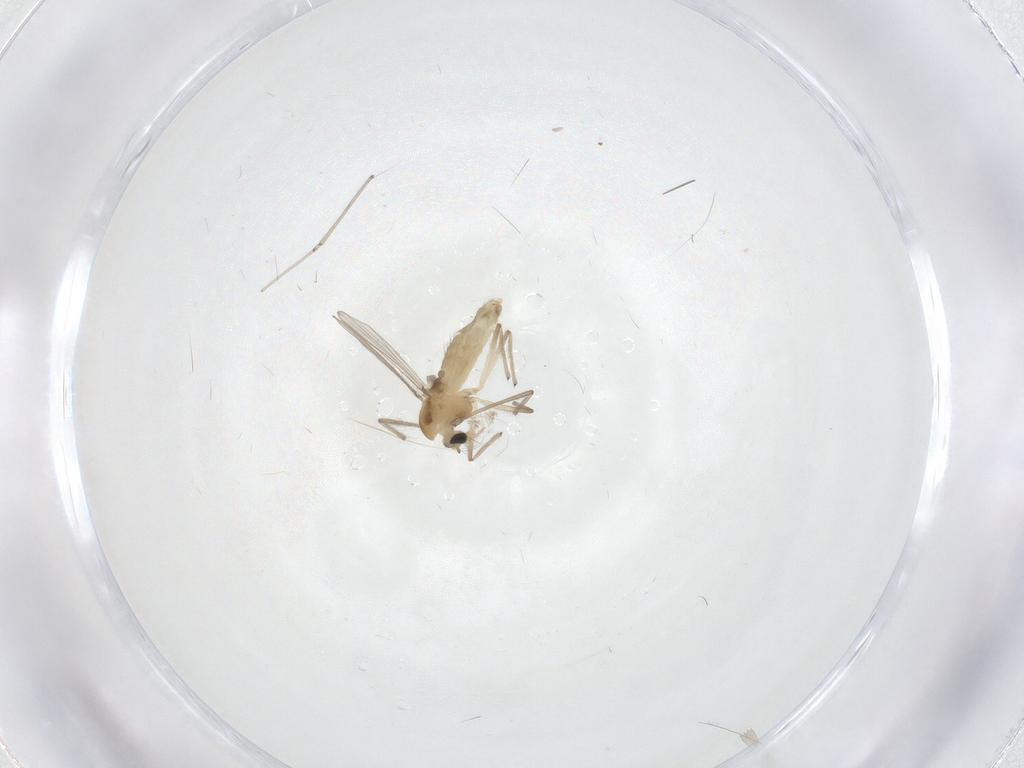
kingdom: Animalia
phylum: Arthropoda
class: Insecta
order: Diptera
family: Chironomidae
